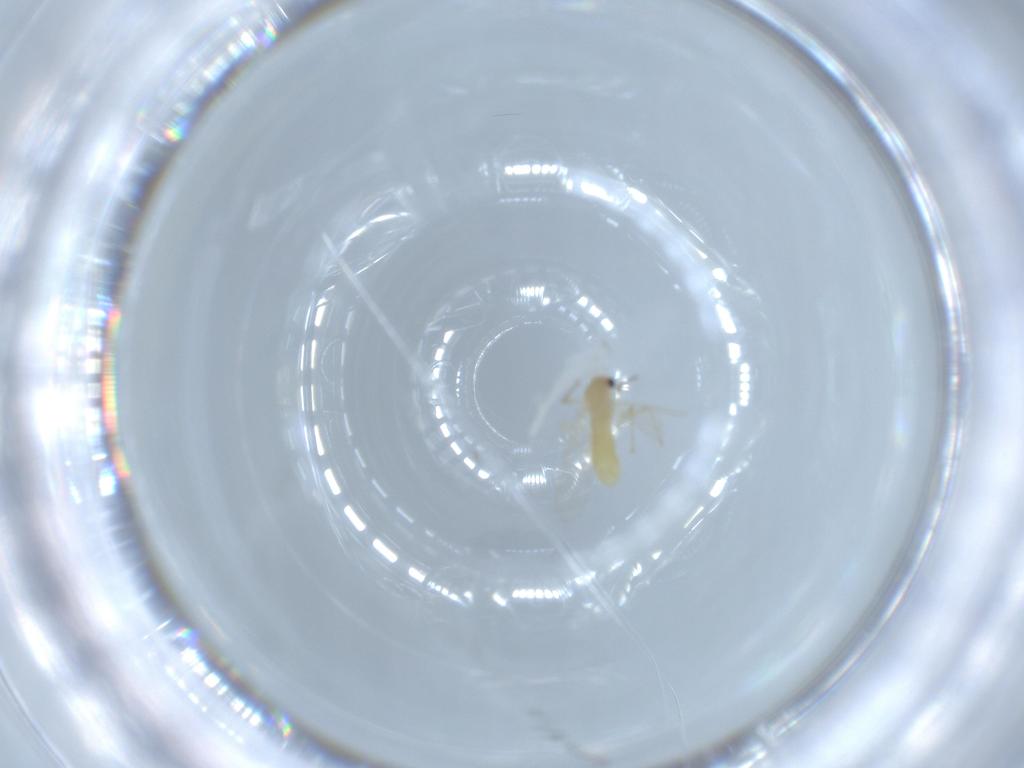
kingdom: Animalia
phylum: Arthropoda
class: Insecta
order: Diptera
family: Chironomidae
